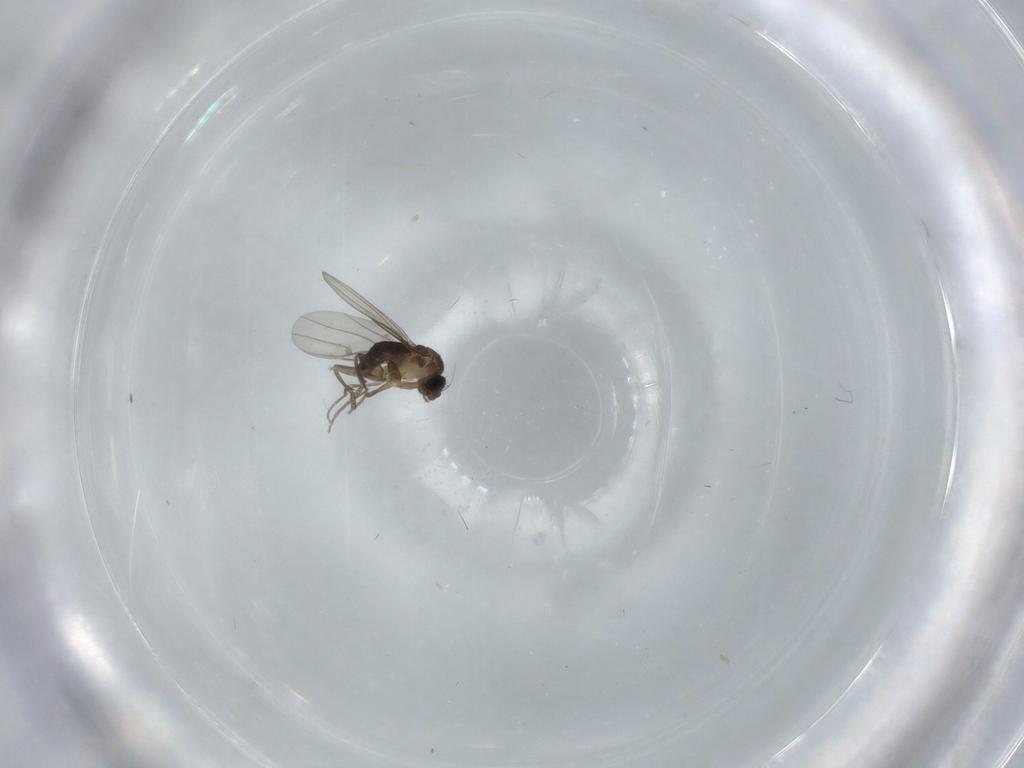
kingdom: Animalia
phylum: Arthropoda
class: Insecta
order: Diptera
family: Phoridae
